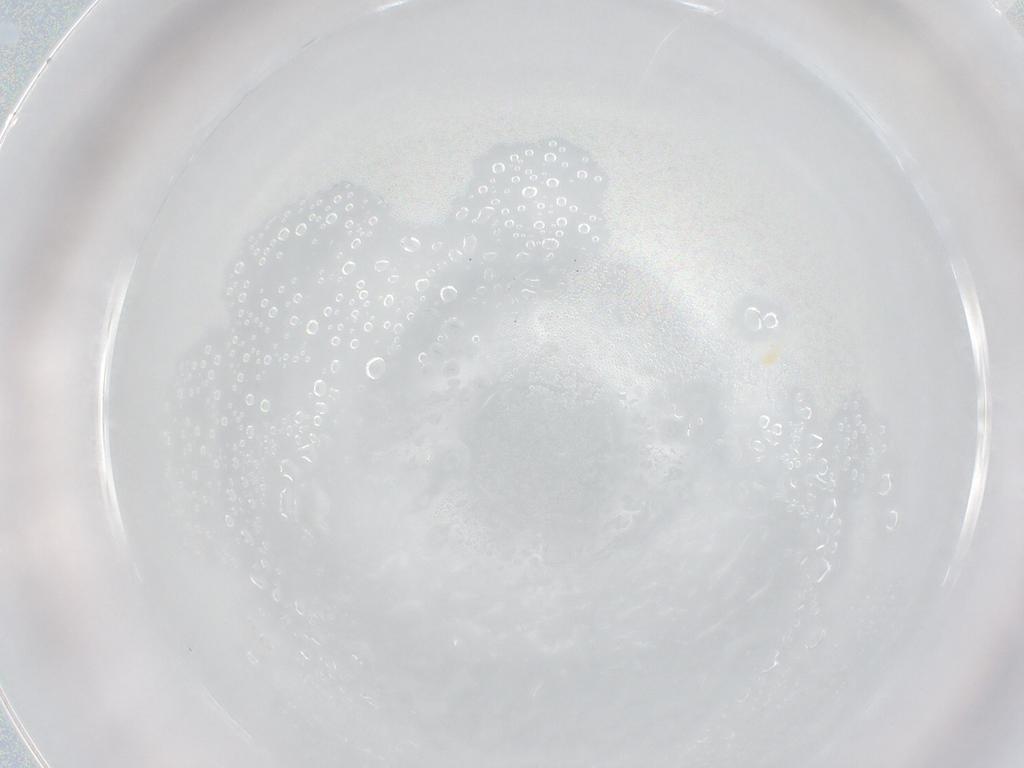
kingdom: Animalia
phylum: Arthropoda
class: Arachnida
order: Trombidiformes
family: Rhagidiidae
